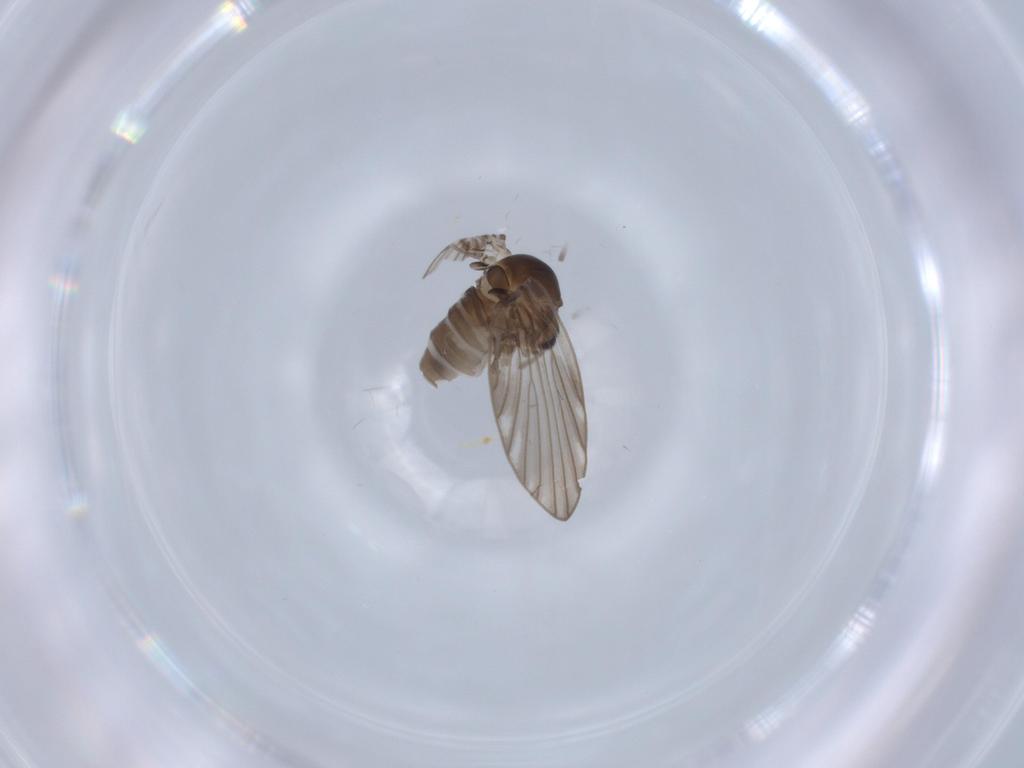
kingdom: Animalia
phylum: Arthropoda
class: Insecta
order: Diptera
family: Psychodidae
